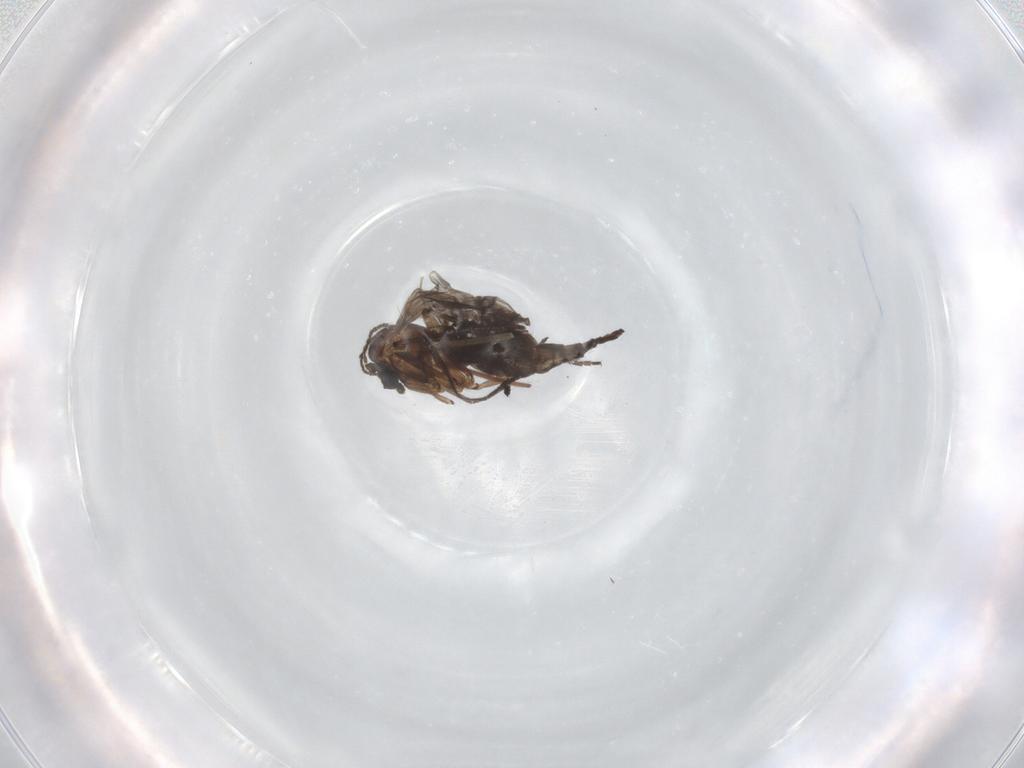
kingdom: Animalia
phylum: Arthropoda
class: Insecta
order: Diptera
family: Sciaridae
